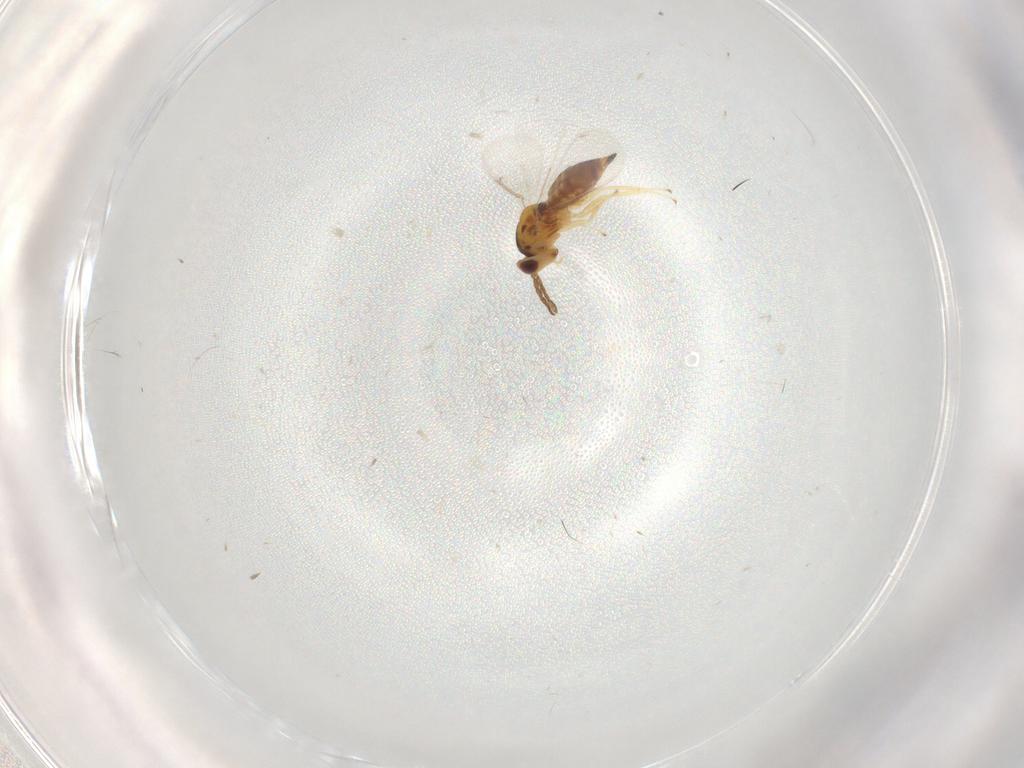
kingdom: Animalia
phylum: Arthropoda
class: Insecta
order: Hymenoptera
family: Eulophidae
